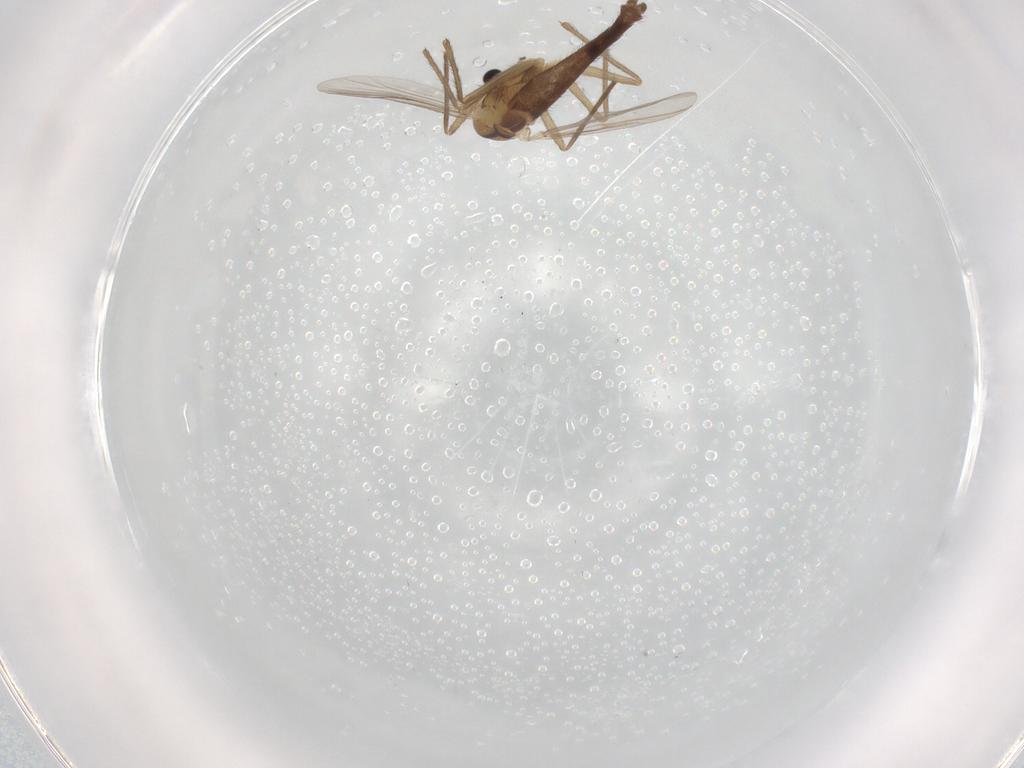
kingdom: Animalia
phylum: Arthropoda
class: Insecta
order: Diptera
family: Chironomidae
